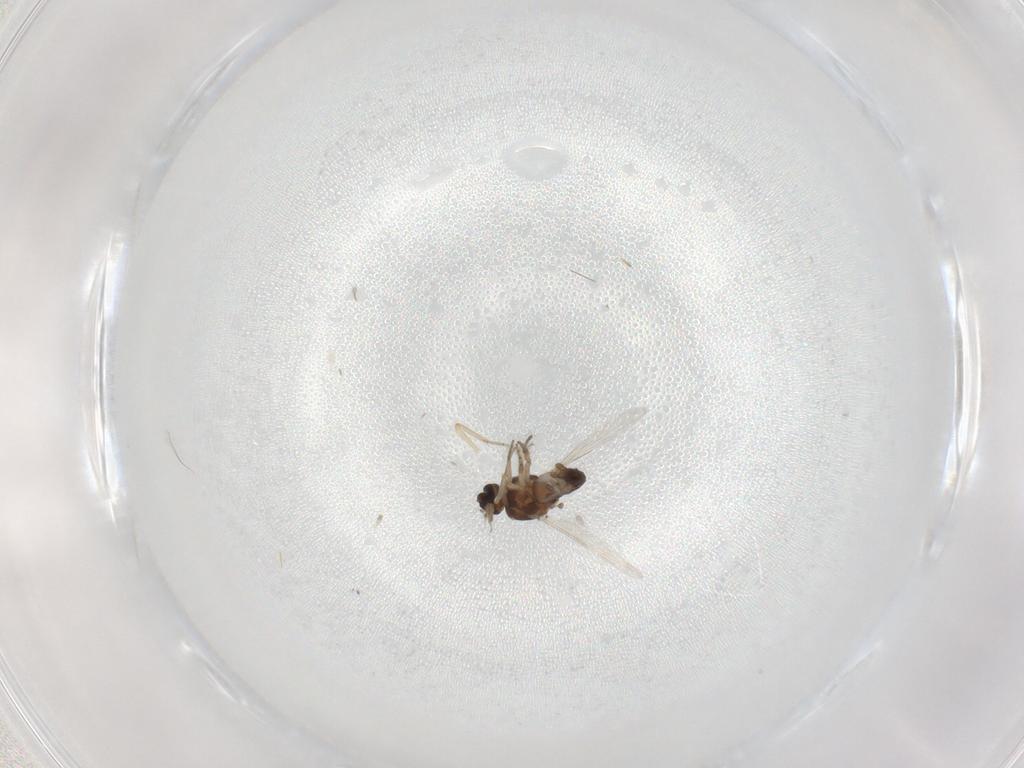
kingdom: Animalia
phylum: Arthropoda
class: Insecta
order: Diptera
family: Ceratopogonidae
